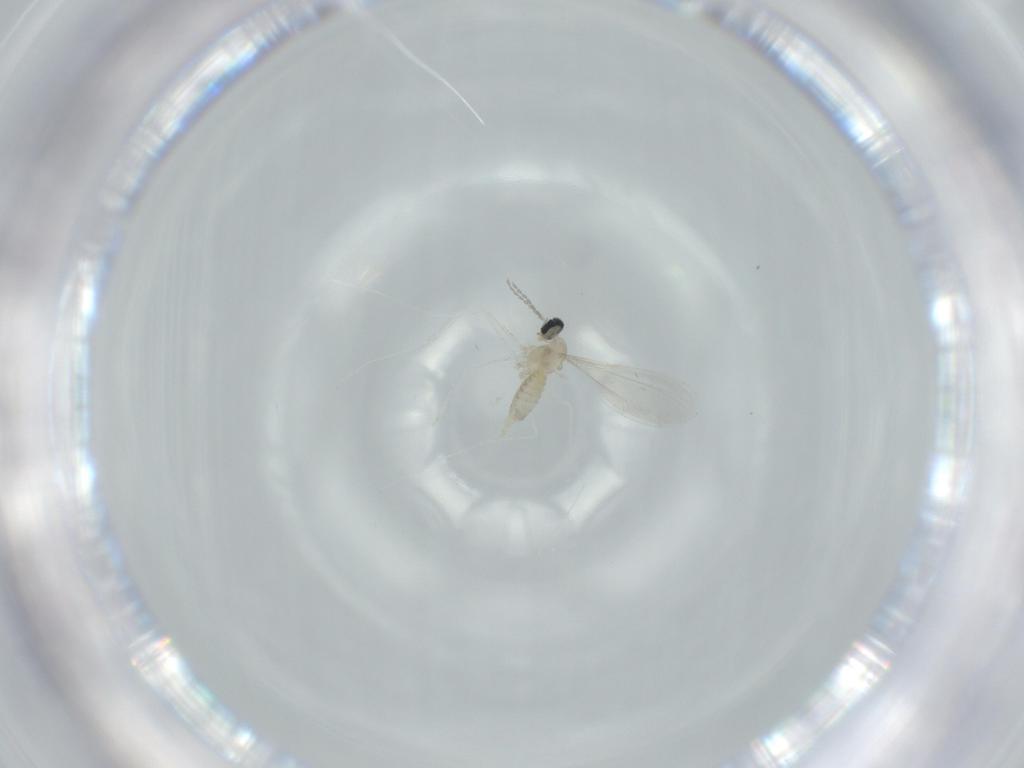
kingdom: Animalia
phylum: Arthropoda
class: Insecta
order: Diptera
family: Cecidomyiidae
